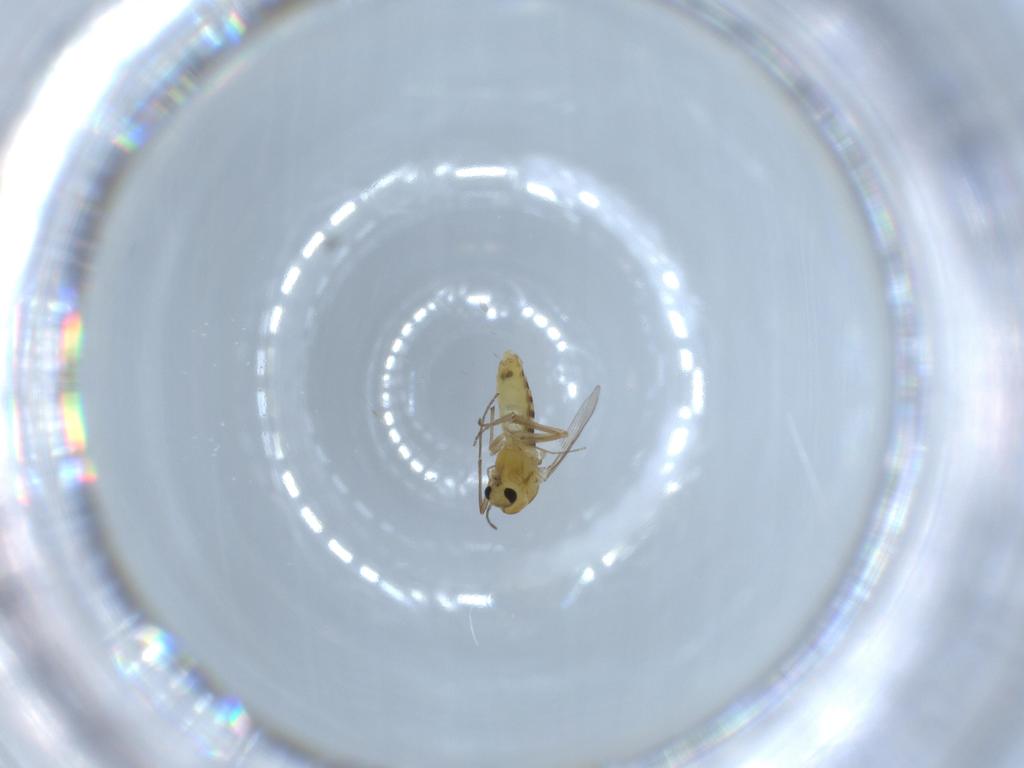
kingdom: Animalia
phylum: Arthropoda
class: Insecta
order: Diptera
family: Chironomidae
